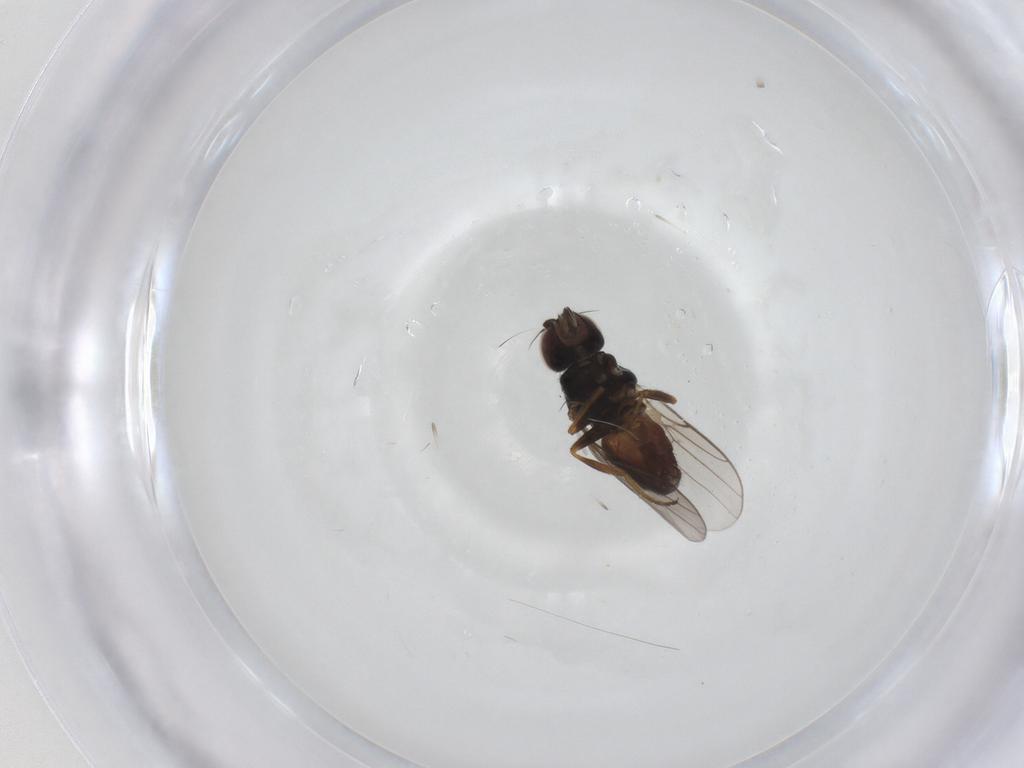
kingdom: Animalia
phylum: Arthropoda
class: Insecta
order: Diptera
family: Chloropidae
